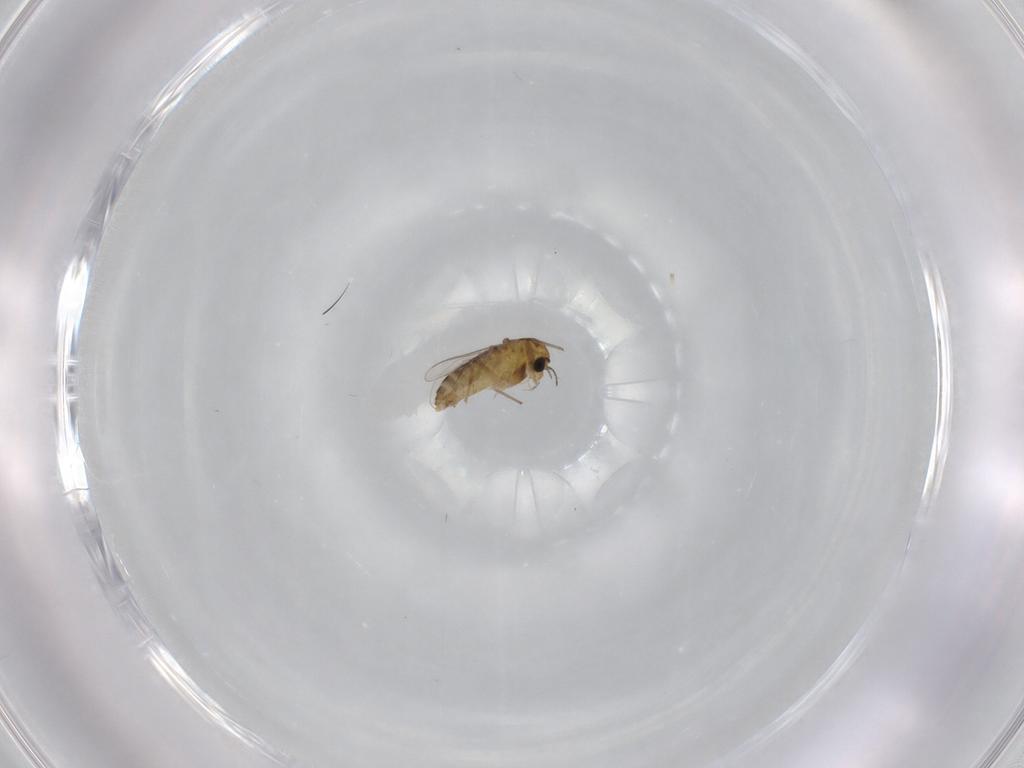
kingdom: Animalia
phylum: Arthropoda
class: Insecta
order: Diptera
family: Chironomidae
